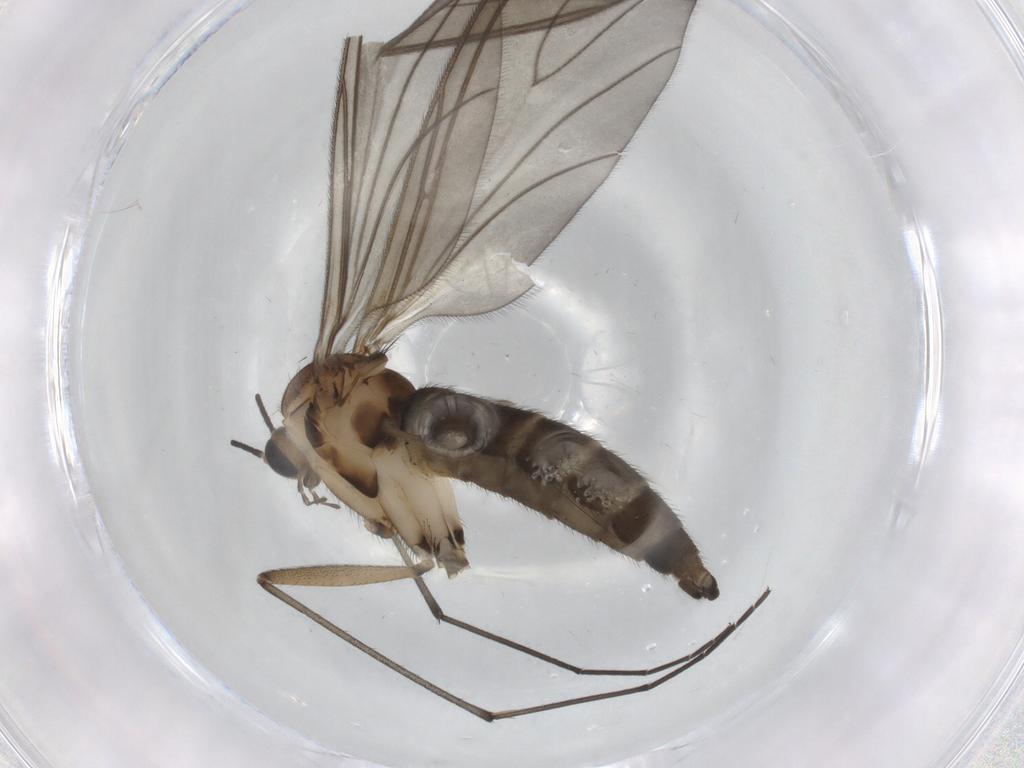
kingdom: Animalia
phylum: Arthropoda
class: Insecta
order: Diptera
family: Sciaridae
